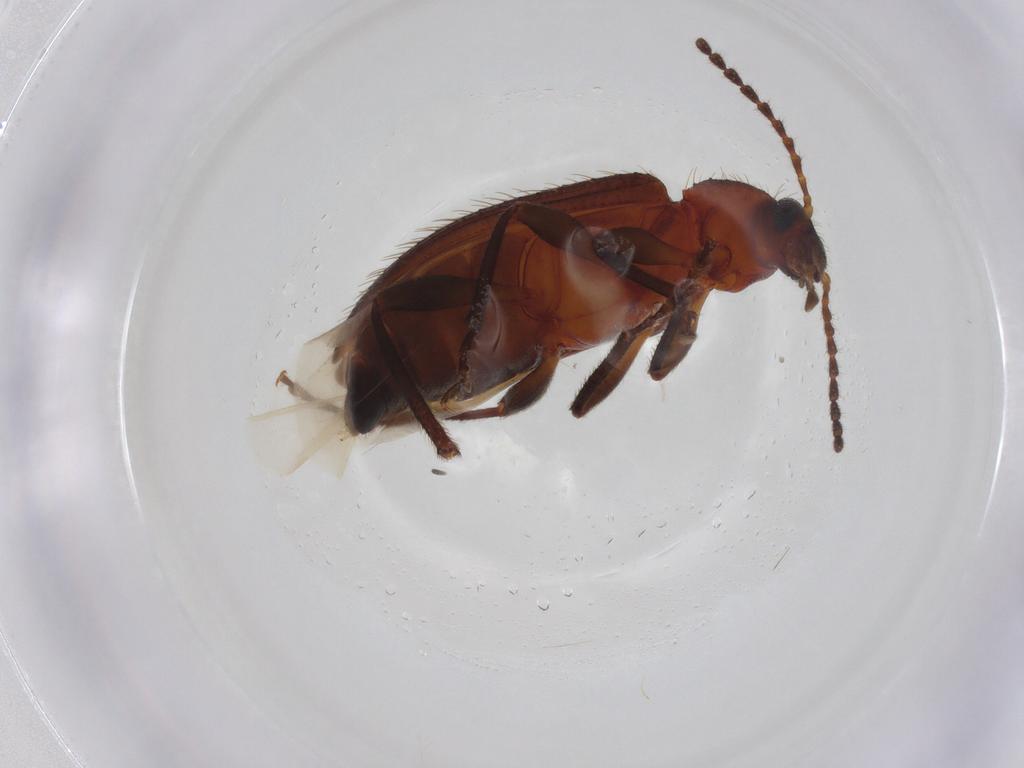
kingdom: Animalia
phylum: Arthropoda
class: Insecta
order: Coleoptera
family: Tenebrionidae
